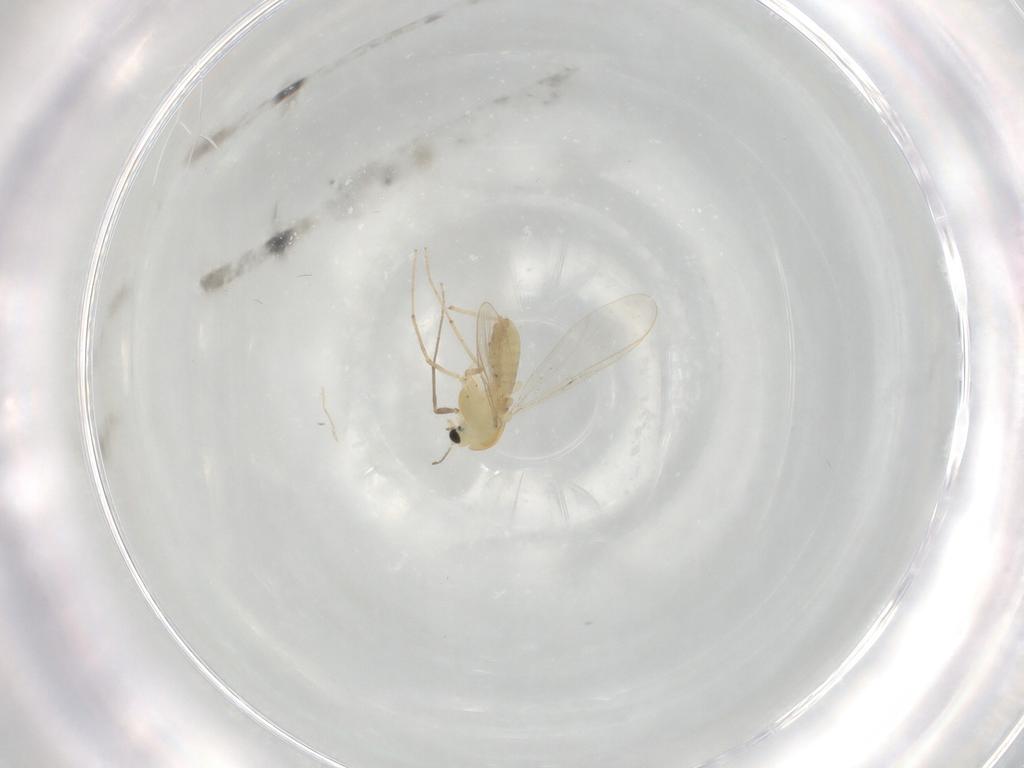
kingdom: Animalia
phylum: Arthropoda
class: Insecta
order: Diptera
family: Chironomidae
